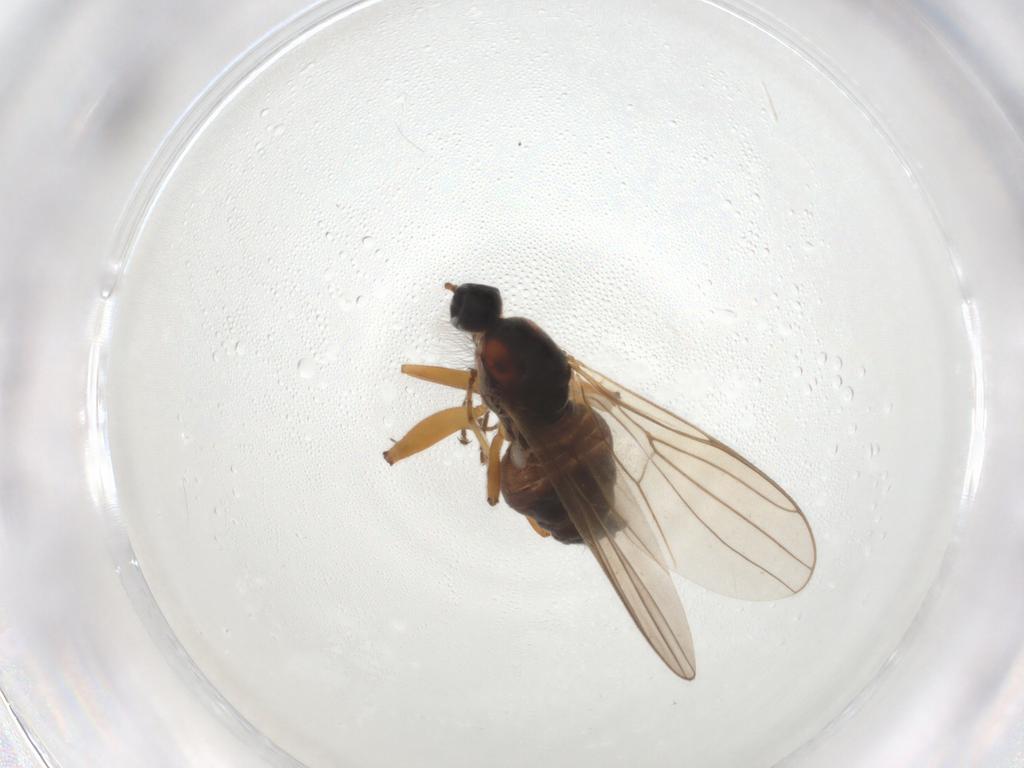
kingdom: Animalia
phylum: Arthropoda
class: Insecta
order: Diptera
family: Hybotidae
